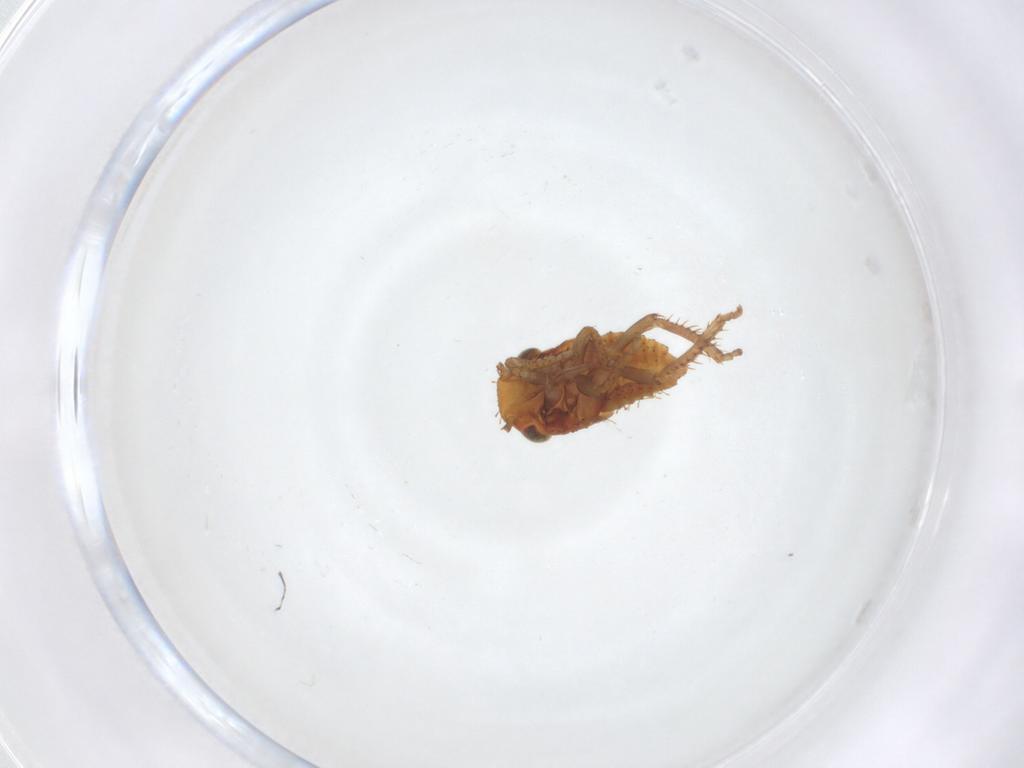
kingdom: Animalia
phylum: Arthropoda
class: Insecta
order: Hemiptera
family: Cicadellidae
